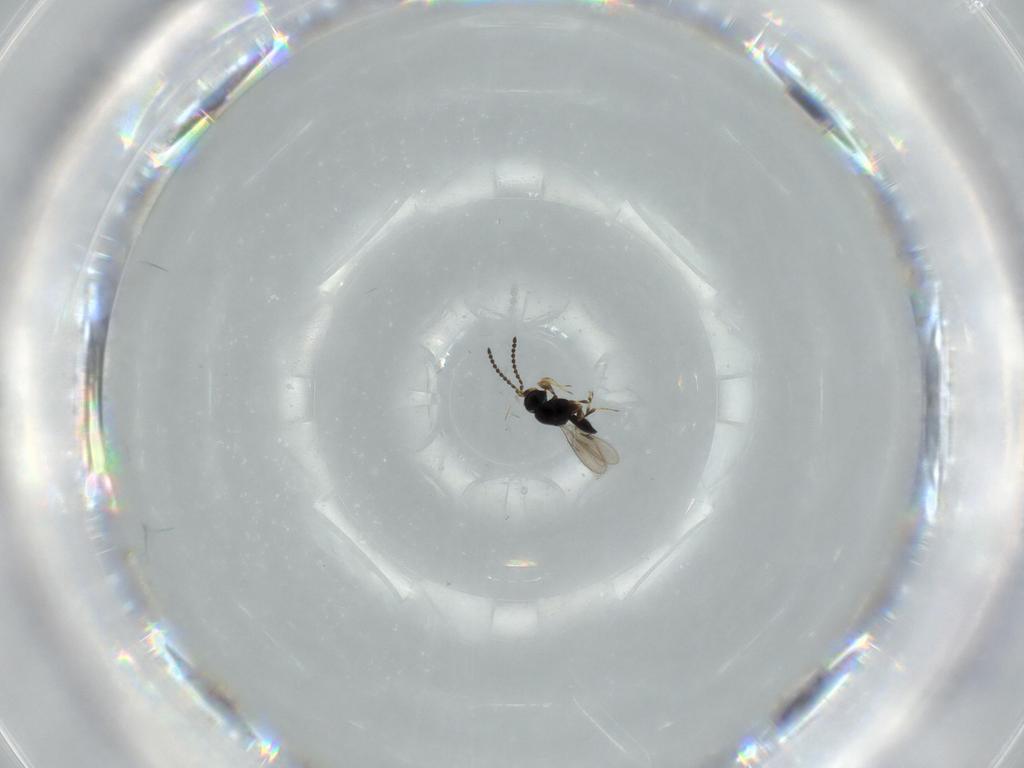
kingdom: Animalia
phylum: Arthropoda
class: Insecta
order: Hymenoptera
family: Scelionidae
